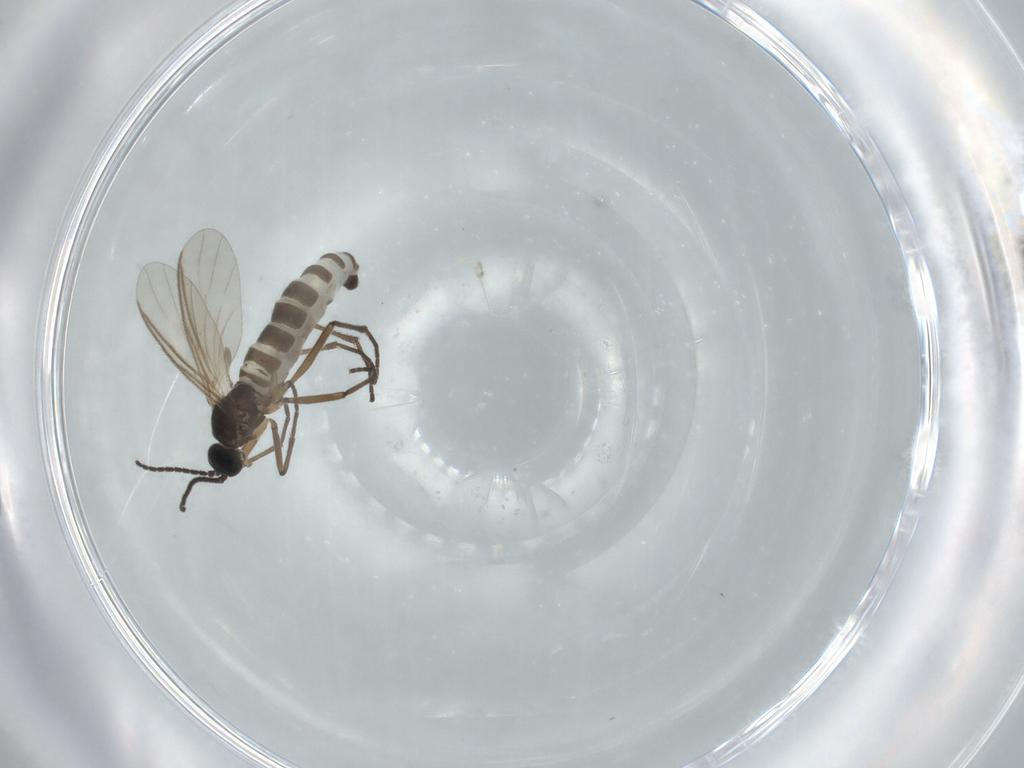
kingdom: Animalia
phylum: Arthropoda
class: Insecta
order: Diptera
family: Sciaridae
